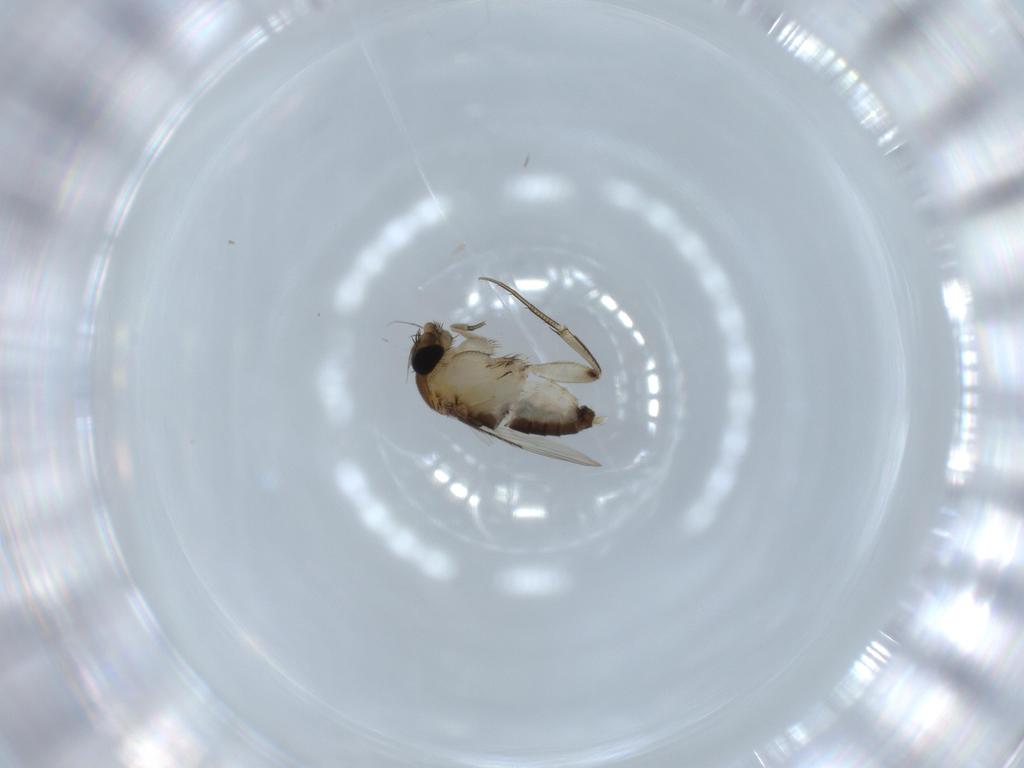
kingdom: Animalia
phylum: Arthropoda
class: Insecta
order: Diptera
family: Phoridae
